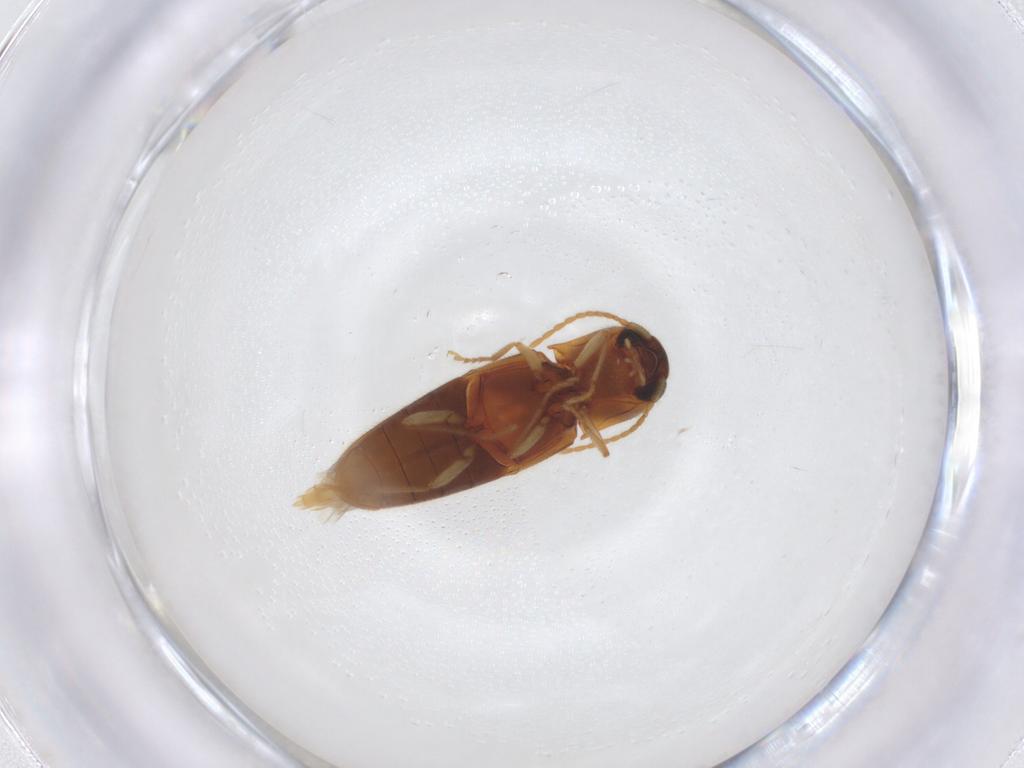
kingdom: Animalia
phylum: Arthropoda
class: Insecta
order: Coleoptera
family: Elateridae
